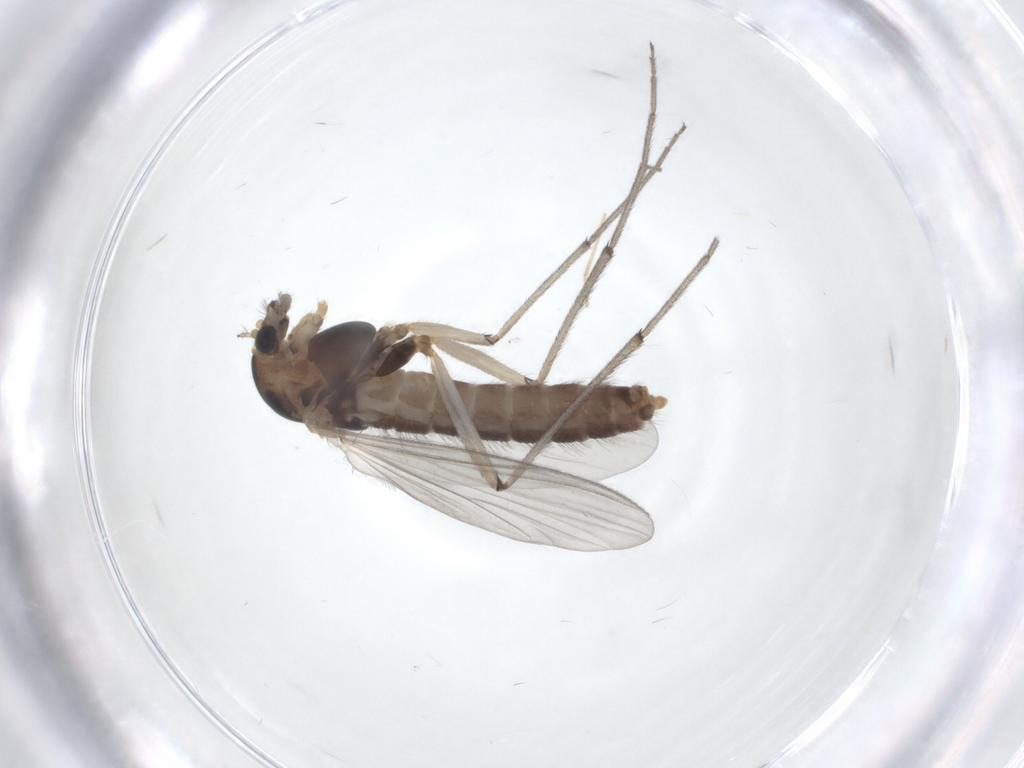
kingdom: Animalia
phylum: Arthropoda
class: Insecta
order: Diptera
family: Chironomidae
